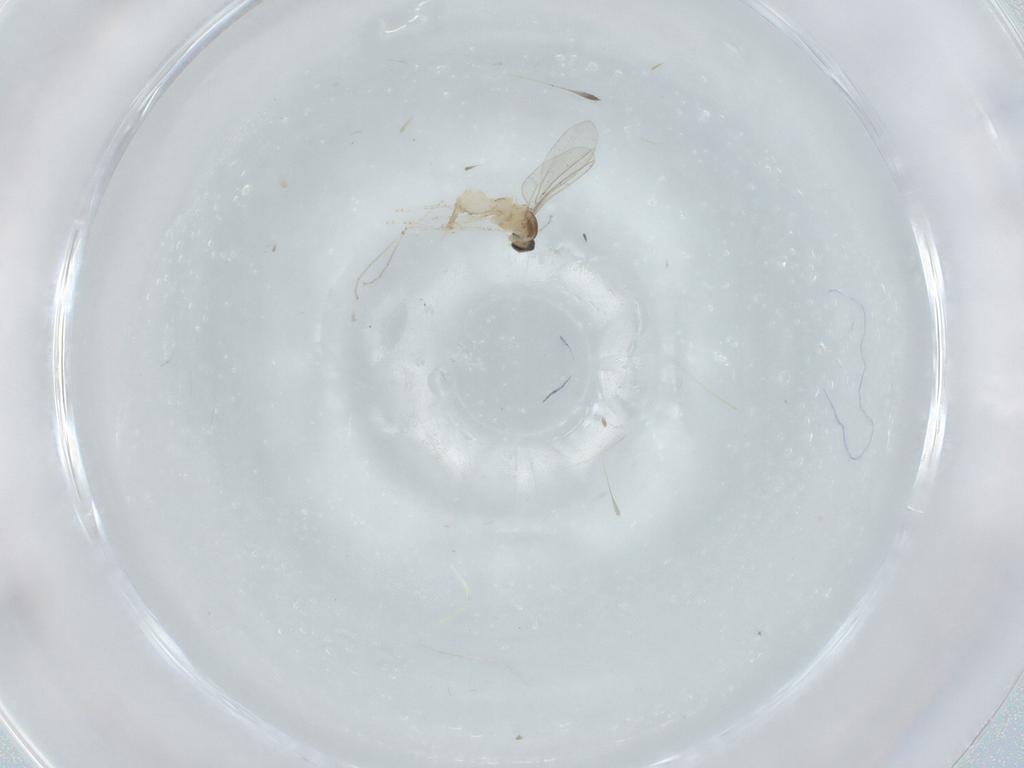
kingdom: Animalia
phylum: Arthropoda
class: Insecta
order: Diptera
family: Cecidomyiidae
